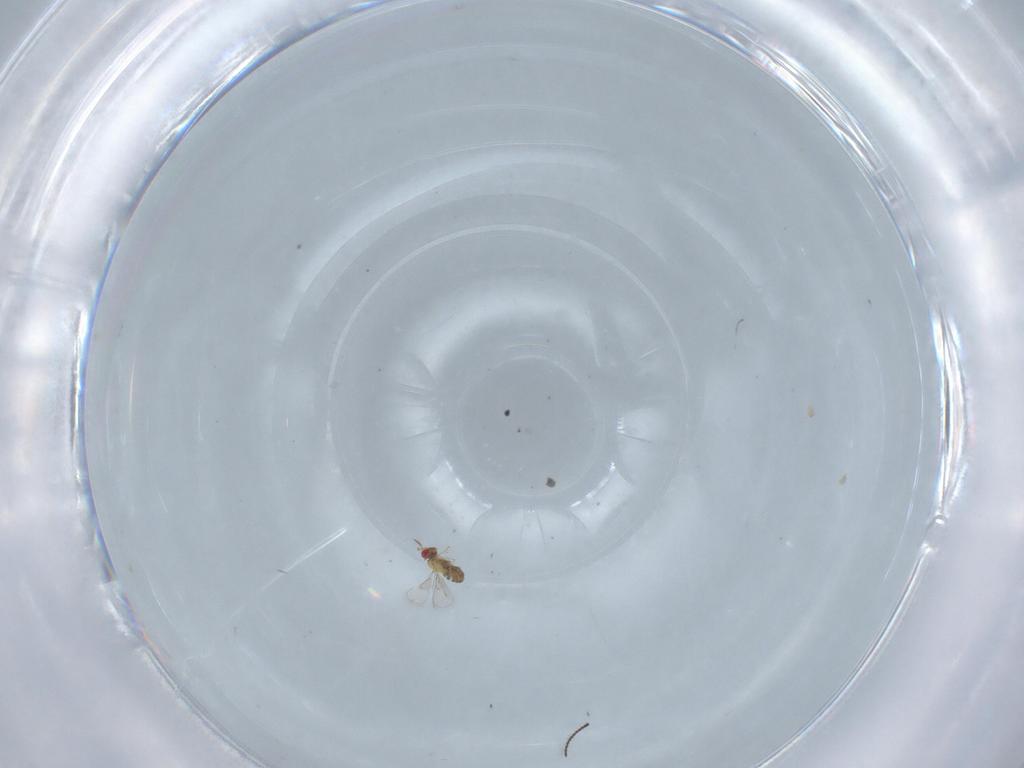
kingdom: Animalia
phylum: Arthropoda
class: Insecta
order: Hymenoptera
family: Trichogrammatidae
